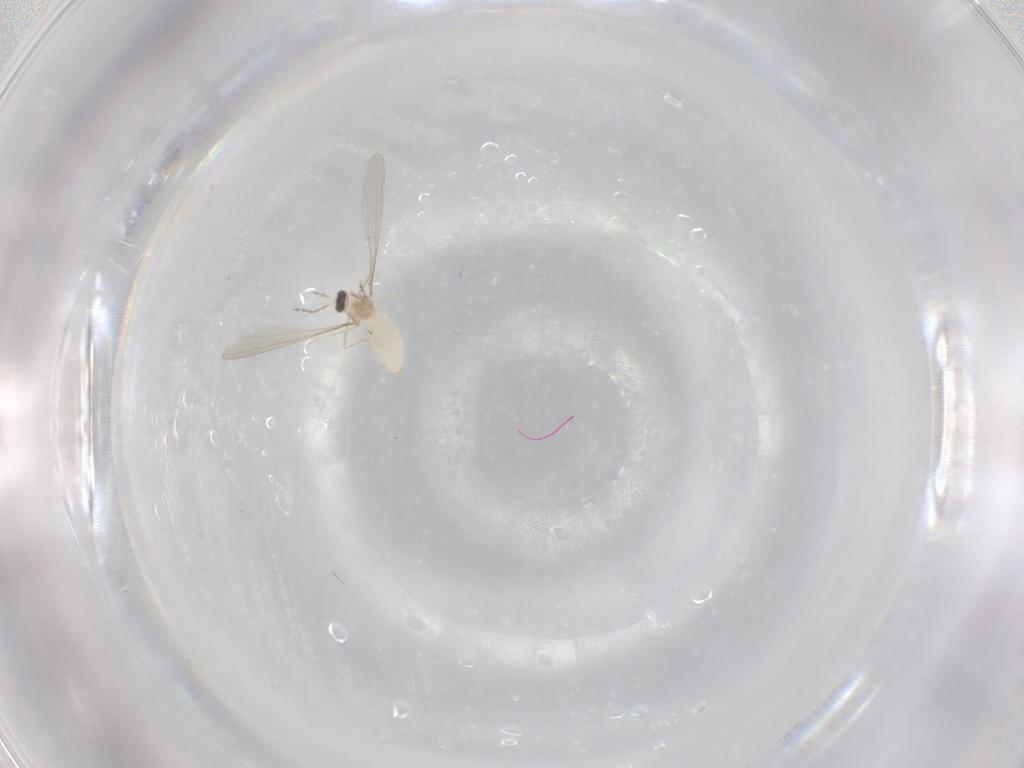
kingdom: Animalia
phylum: Arthropoda
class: Insecta
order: Diptera
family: Cecidomyiidae
